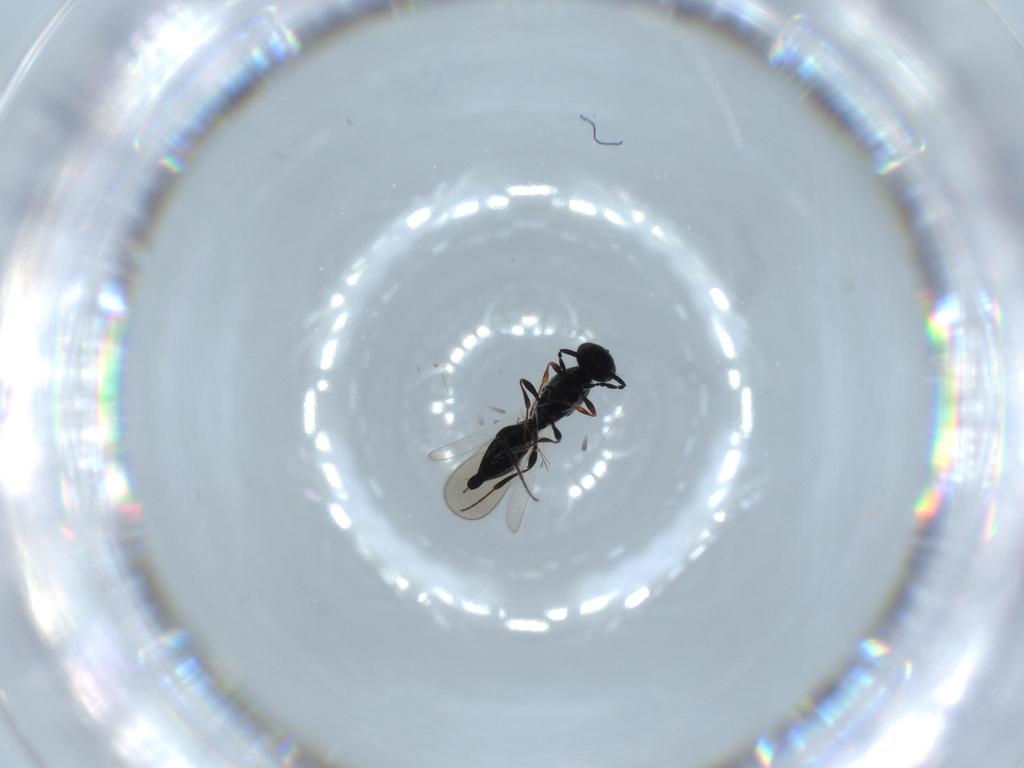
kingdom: Animalia
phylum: Arthropoda
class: Insecta
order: Hymenoptera
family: Platygastridae
